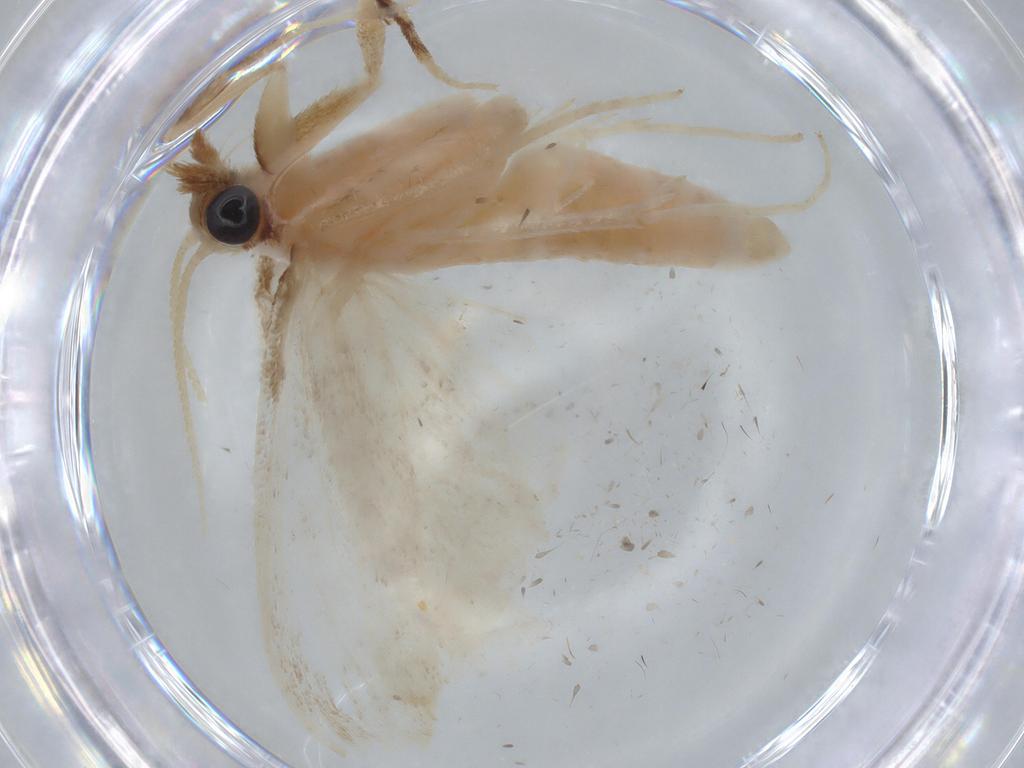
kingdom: Animalia
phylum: Arthropoda
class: Insecta
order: Lepidoptera
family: Crambidae
